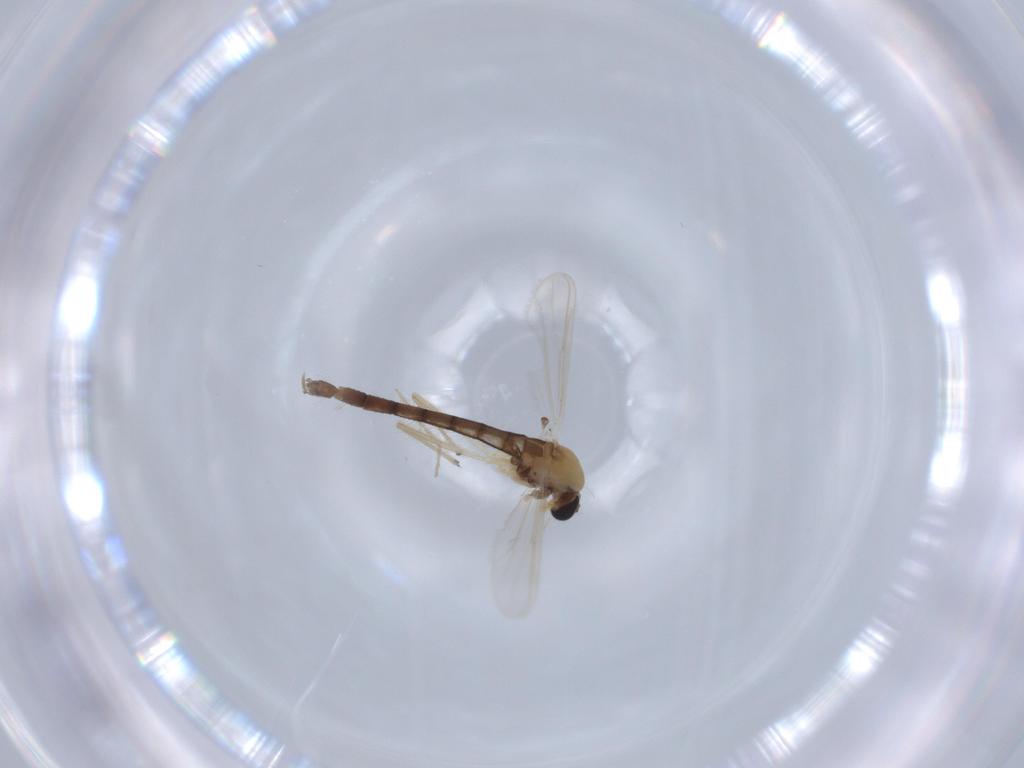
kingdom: Animalia
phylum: Arthropoda
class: Insecta
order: Diptera
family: Chironomidae
